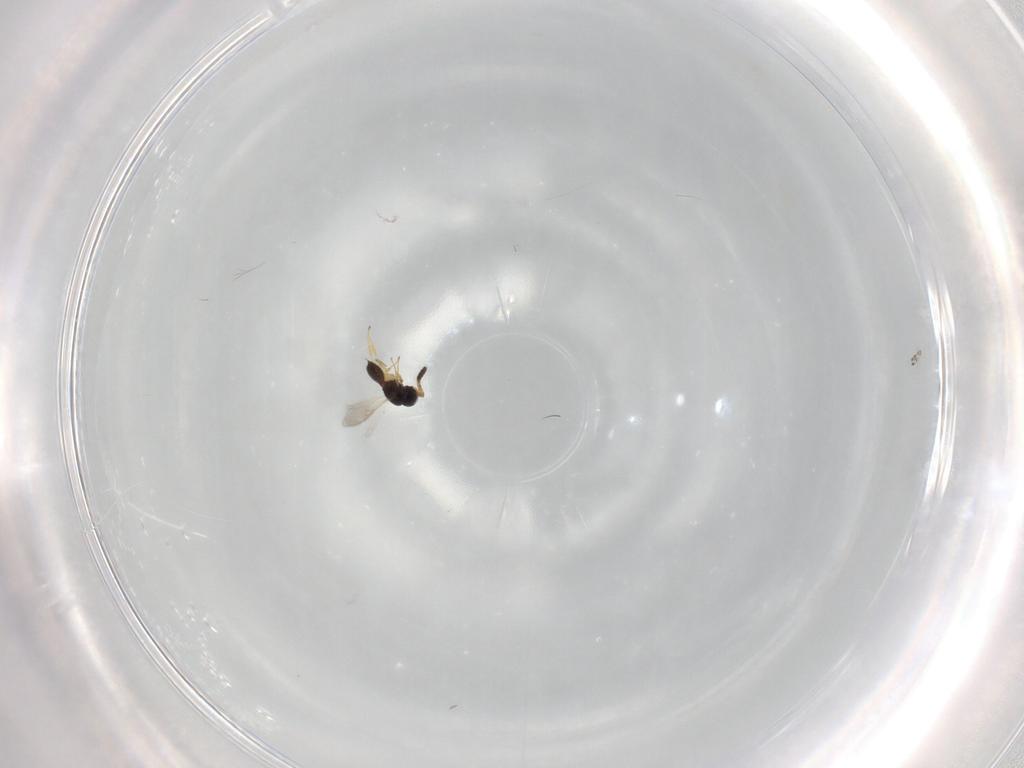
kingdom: Animalia
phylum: Arthropoda
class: Insecta
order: Hymenoptera
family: Scelionidae
